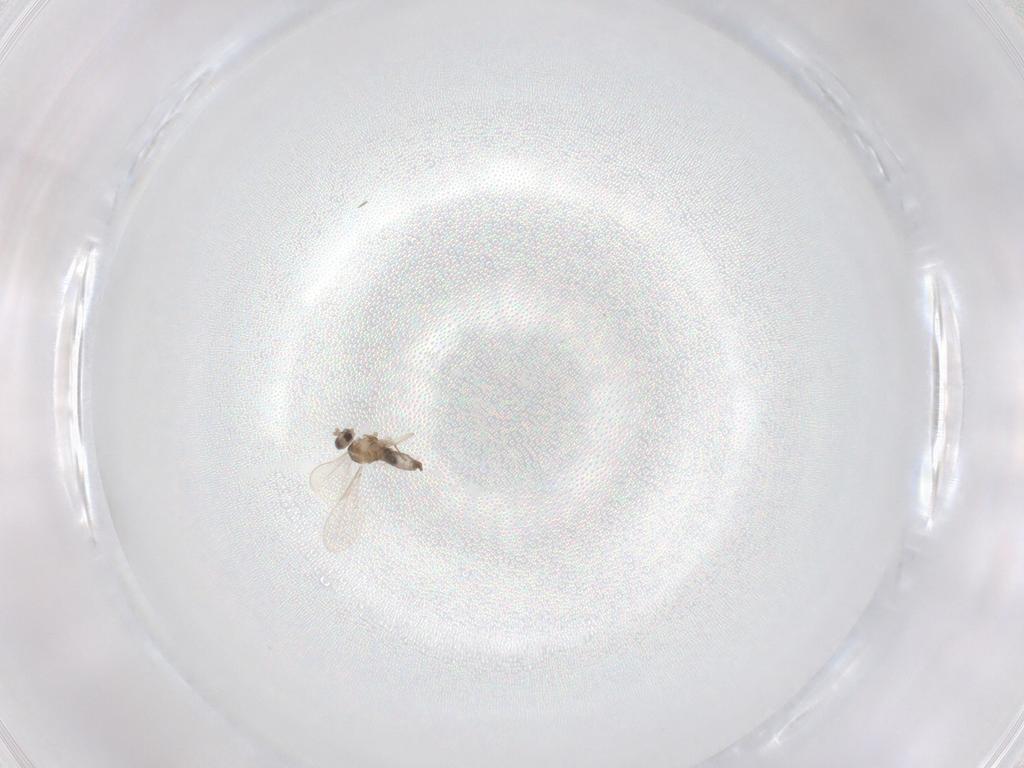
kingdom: Animalia
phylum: Arthropoda
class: Insecta
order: Diptera
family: Cecidomyiidae
